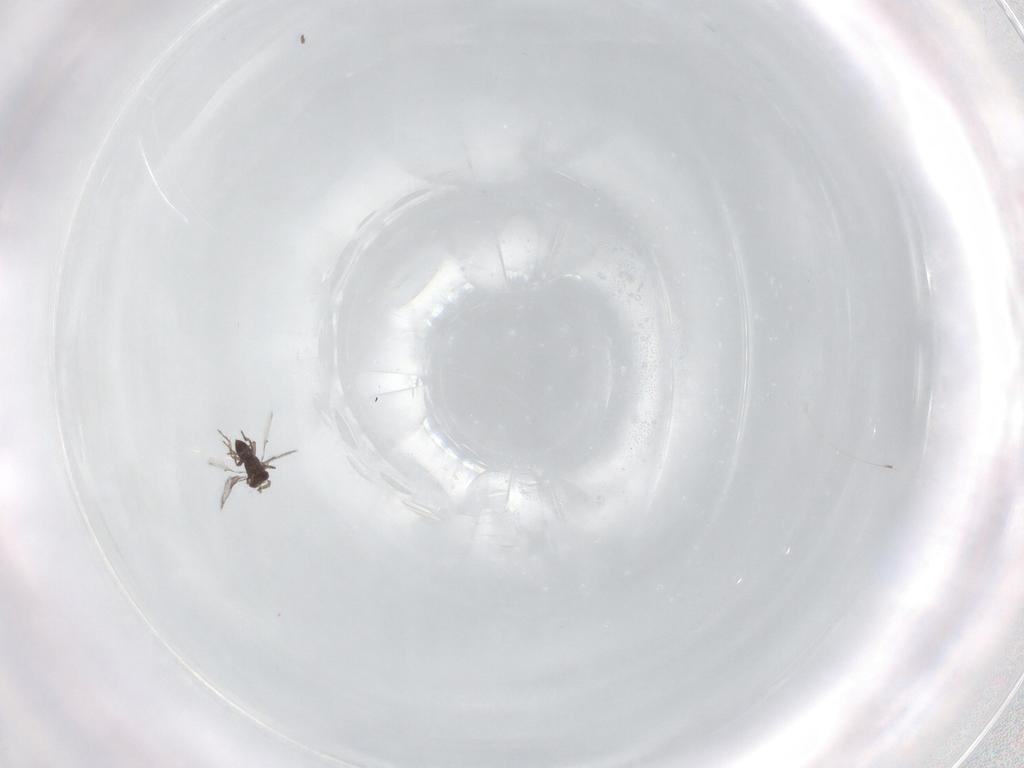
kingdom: Animalia
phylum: Arthropoda
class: Insecta
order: Hymenoptera
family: Trichogrammatidae
